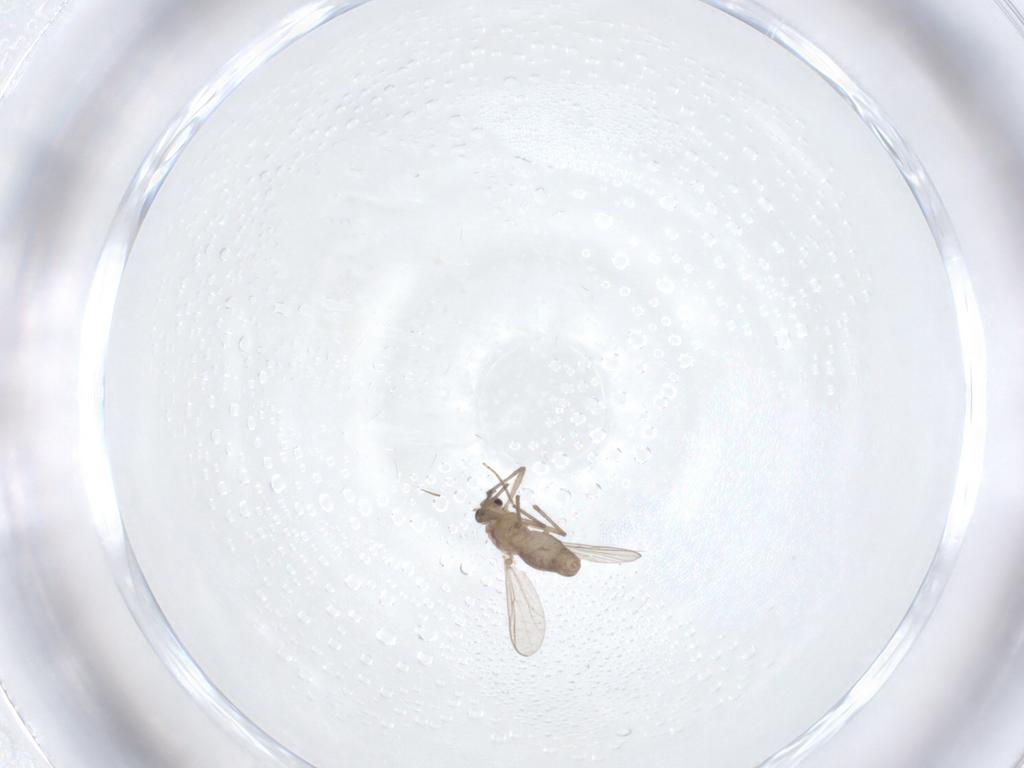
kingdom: Animalia
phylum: Arthropoda
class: Insecta
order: Diptera
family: Chironomidae
